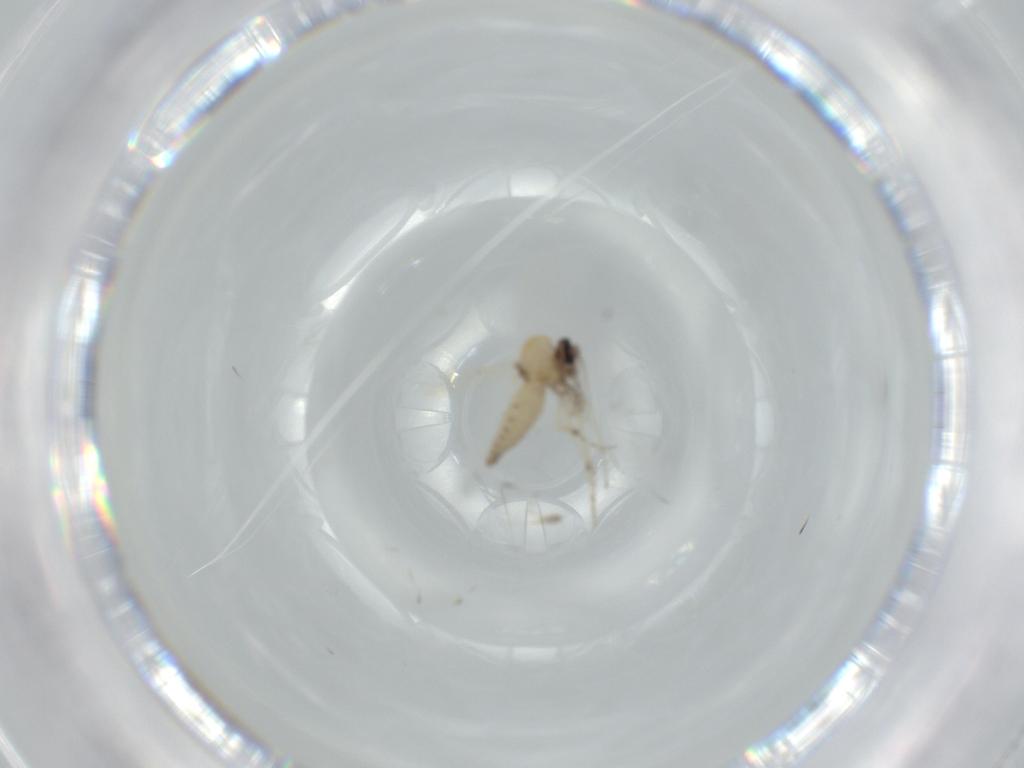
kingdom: Animalia
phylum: Arthropoda
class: Insecta
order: Diptera
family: Ceratopogonidae
